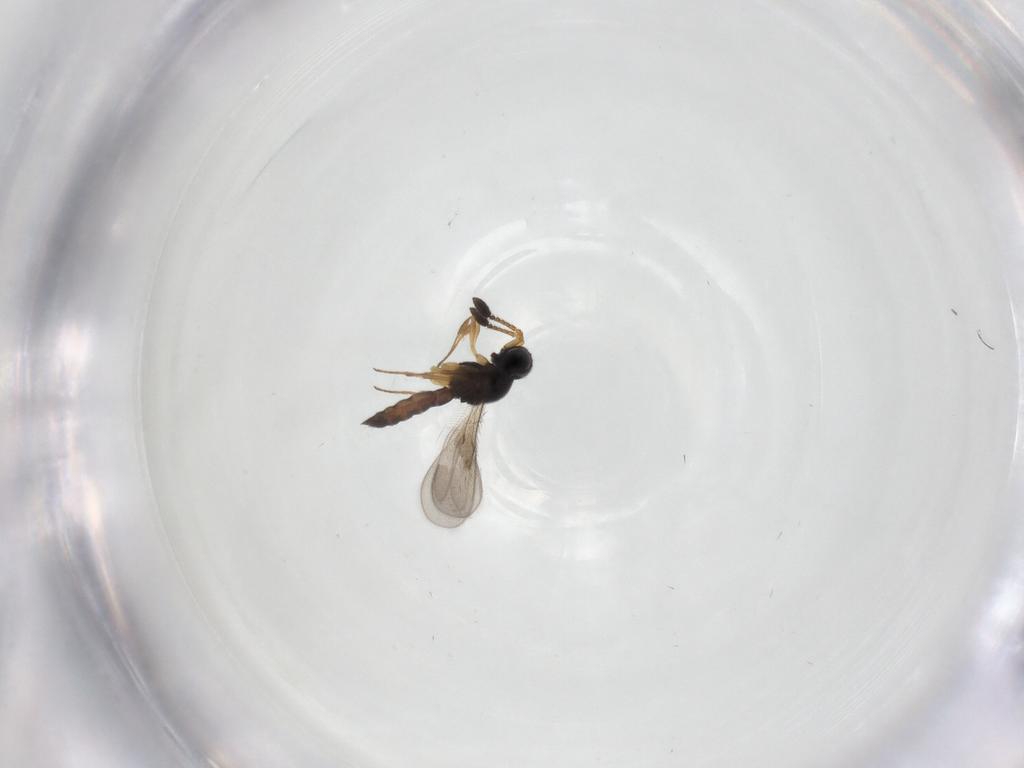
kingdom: Animalia
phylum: Arthropoda
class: Insecta
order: Hymenoptera
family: Scelionidae
